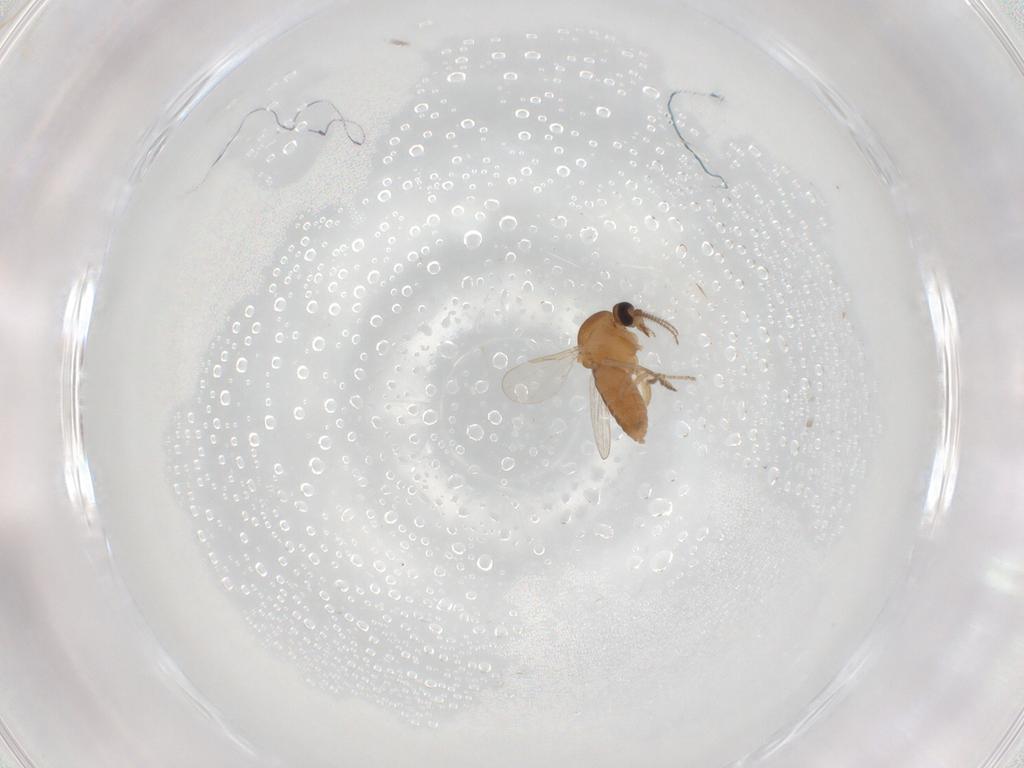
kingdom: Animalia
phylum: Arthropoda
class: Insecta
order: Diptera
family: Ceratopogonidae
